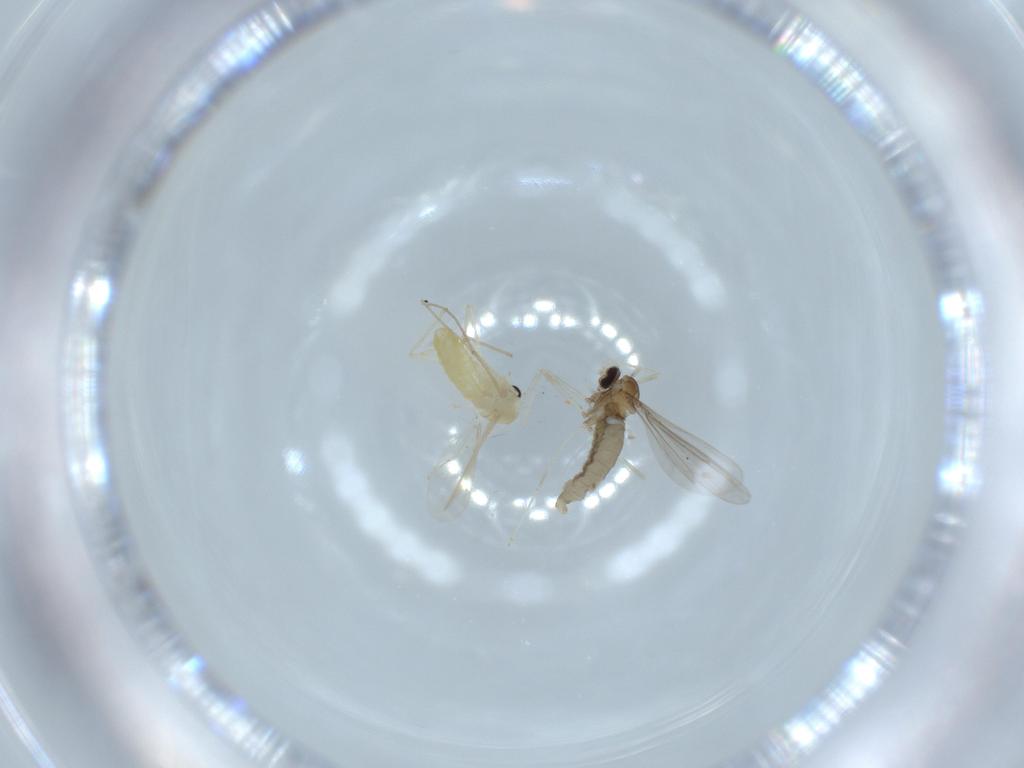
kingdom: Animalia
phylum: Arthropoda
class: Insecta
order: Diptera
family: Cecidomyiidae
